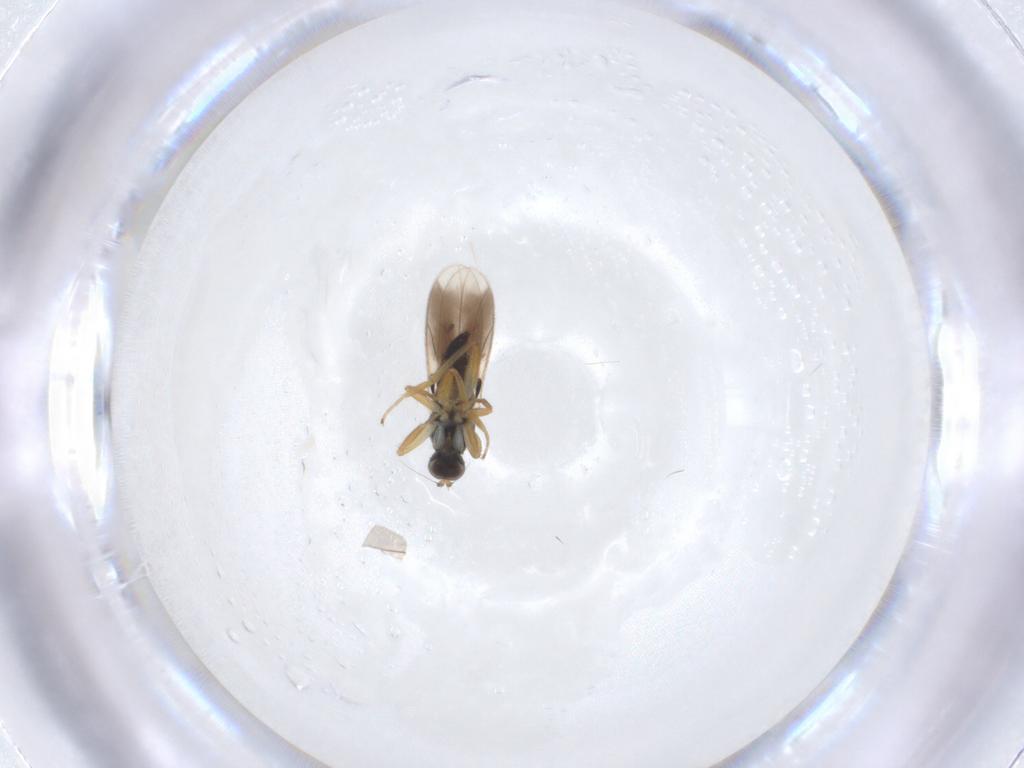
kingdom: Animalia
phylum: Arthropoda
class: Insecta
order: Diptera
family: Hybotidae
